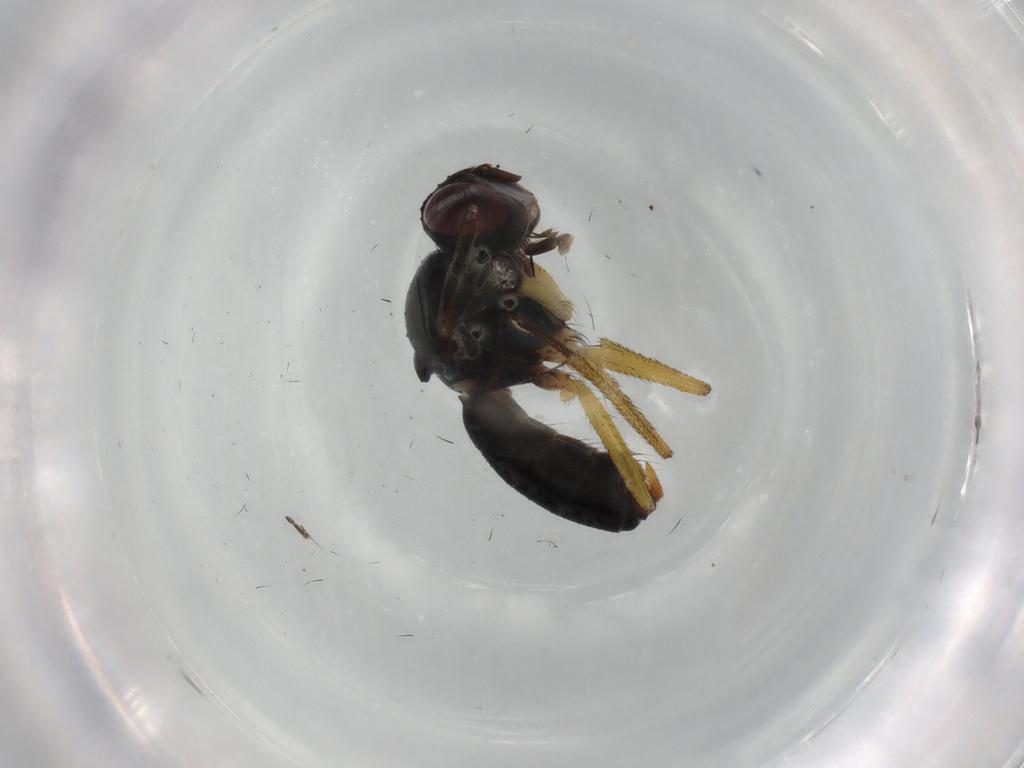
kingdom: Animalia
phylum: Arthropoda
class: Insecta
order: Diptera
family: Muscidae
